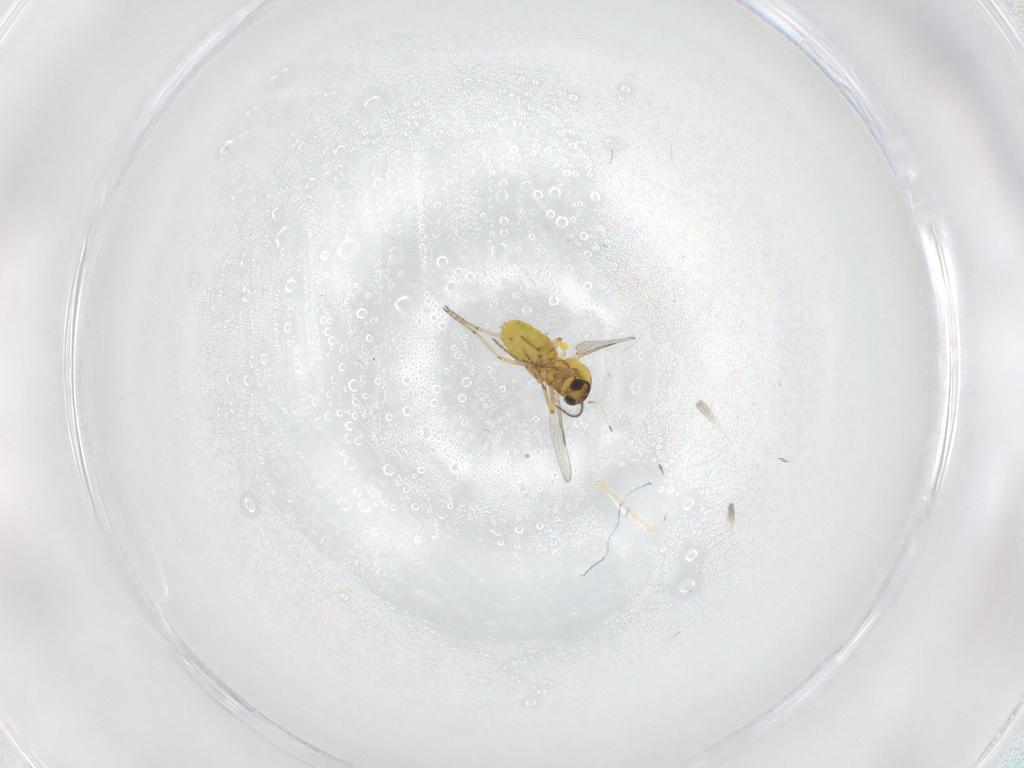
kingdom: Animalia
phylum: Arthropoda
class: Insecta
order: Diptera
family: Ceratopogonidae
